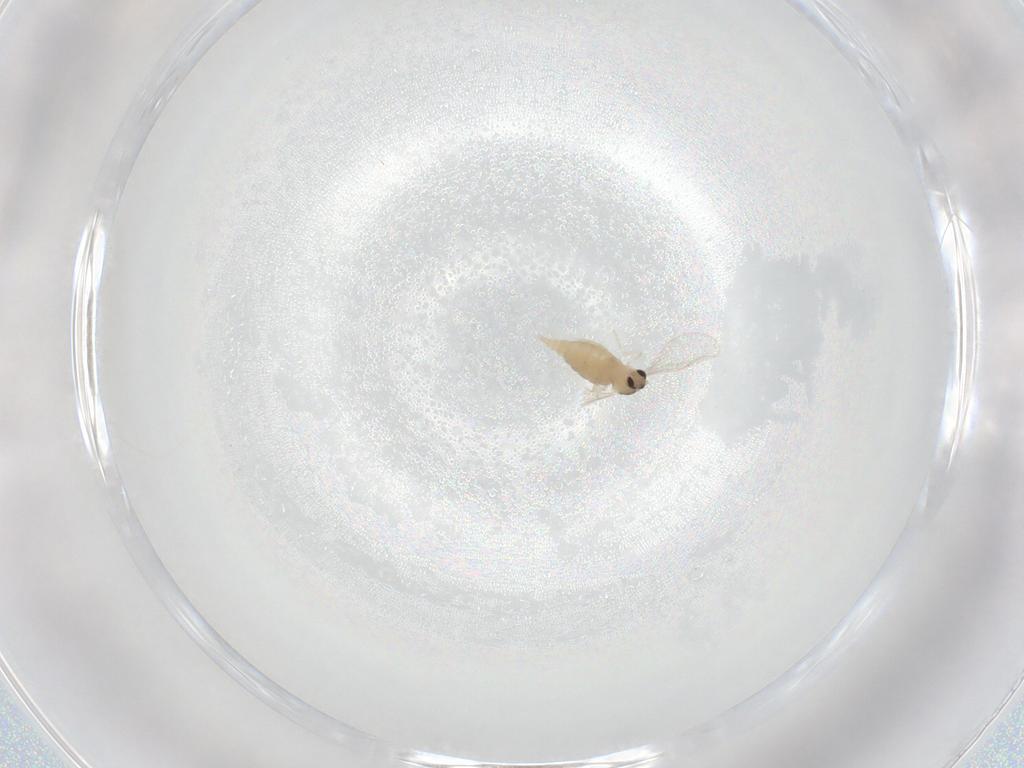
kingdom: Animalia
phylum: Arthropoda
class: Insecta
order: Diptera
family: Cecidomyiidae
